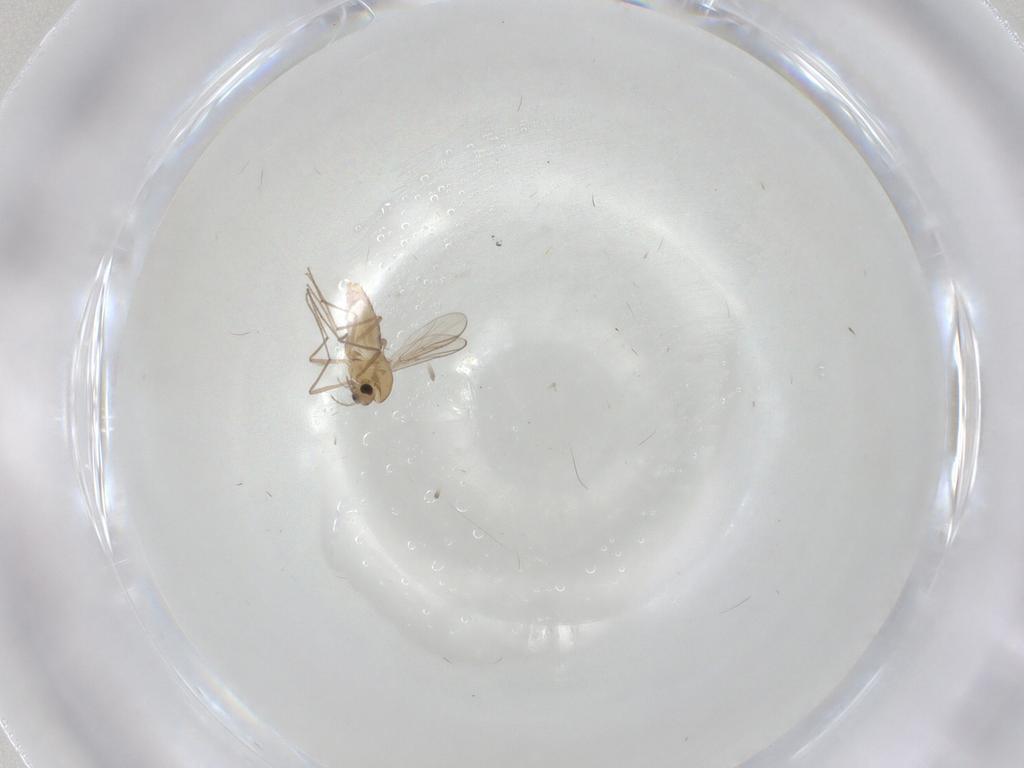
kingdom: Animalia
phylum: Arthropoda
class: Insecta
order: Diptera
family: Chironomidae
